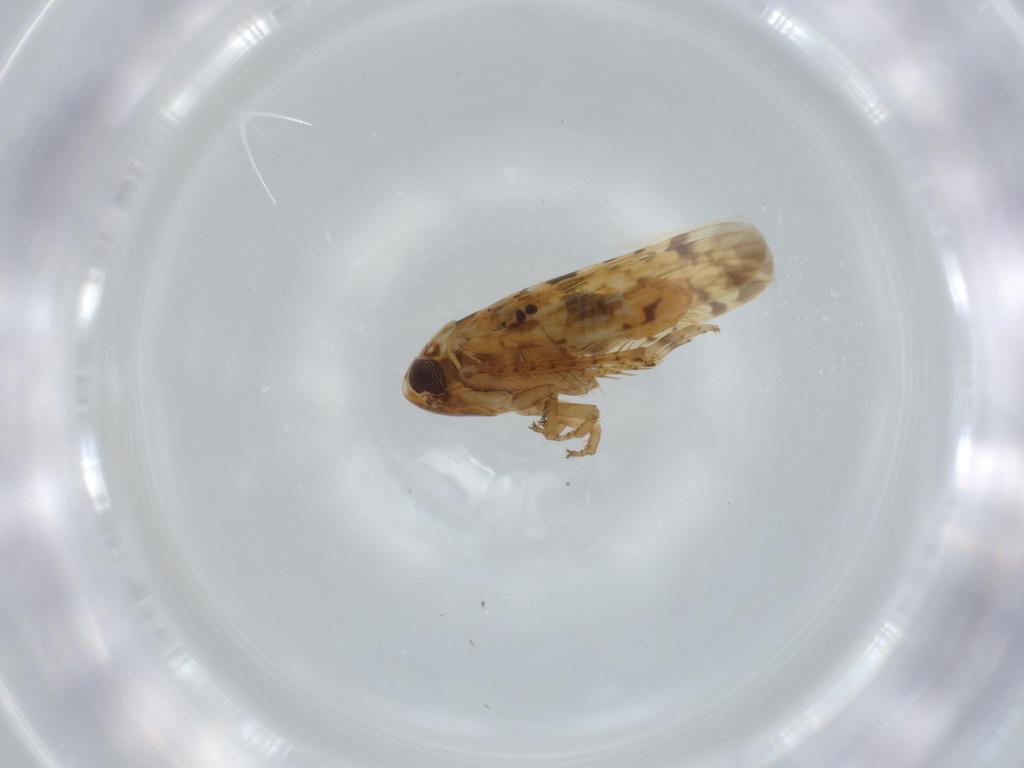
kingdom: Animalia
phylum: Arthropoda
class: Insecta
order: Hemiptera
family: Cicadellidae
